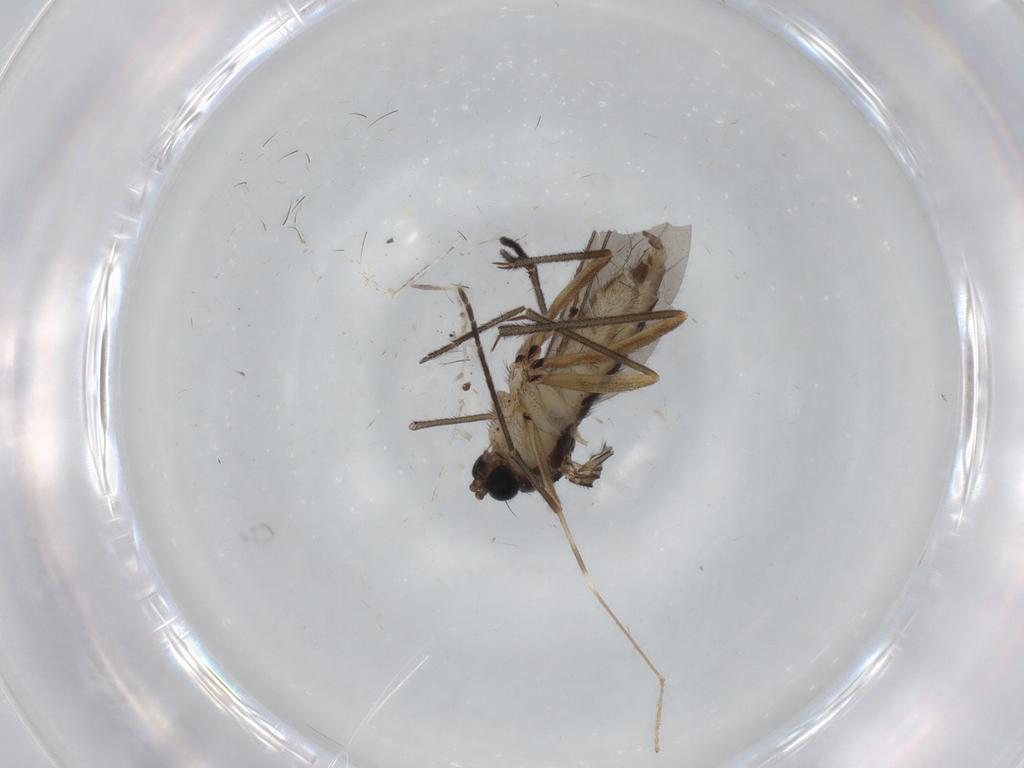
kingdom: Animalia
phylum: Arthropoda
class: Insecta
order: Diptera
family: Sciaridae
